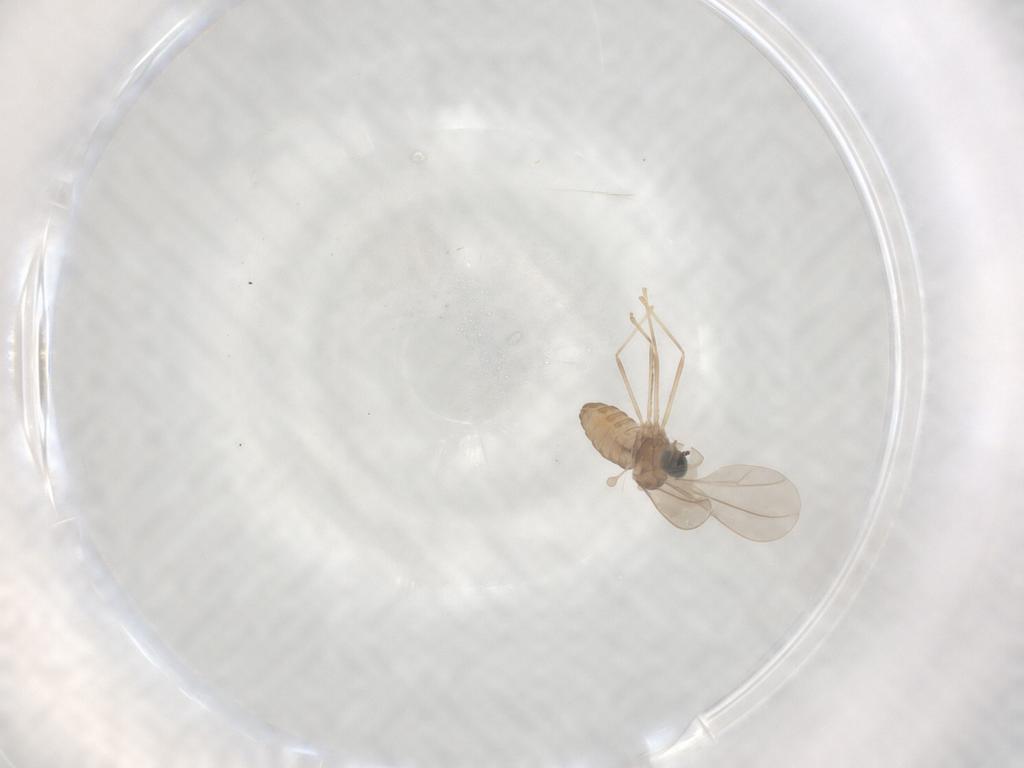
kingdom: Animalia
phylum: Arthropoda
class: Insecta
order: Diptera
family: Cecidomyiidae
